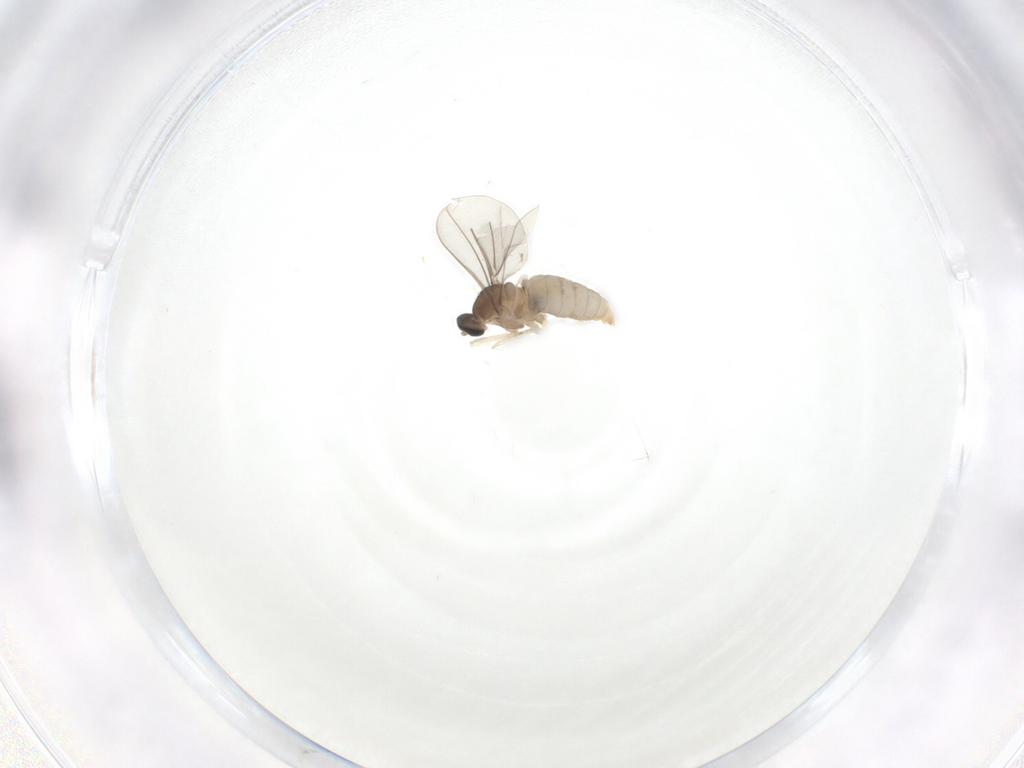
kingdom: Animalia
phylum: Arthropoda
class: Insecta
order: Diptera
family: Cecidomyiidae
